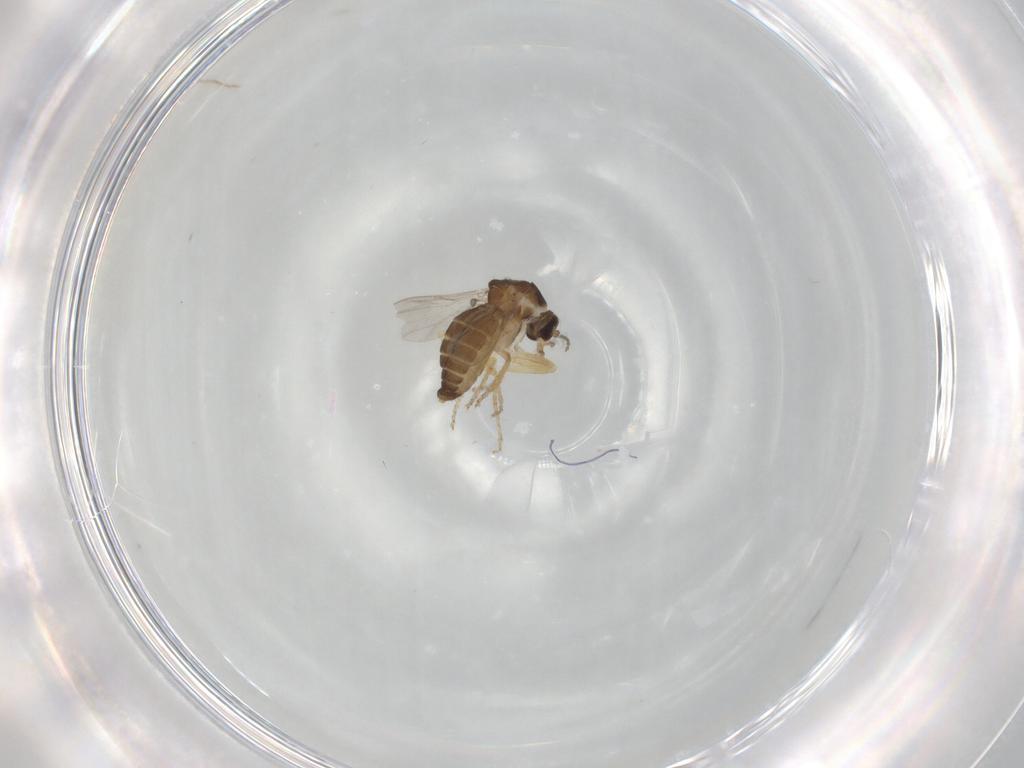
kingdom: Animalia
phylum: Arthropoda
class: Insecta
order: Diptera
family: Ceratopogonidae
